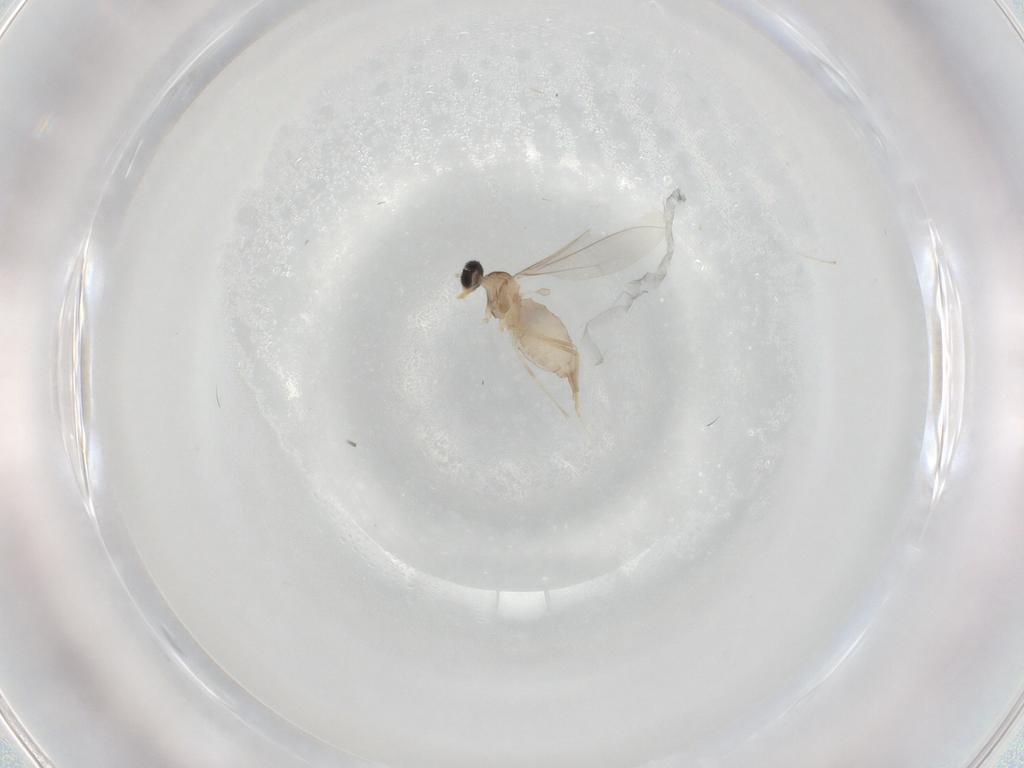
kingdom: Animalia
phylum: Arthropoda
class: Insecta
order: Diptera
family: Cecidomyiidae
